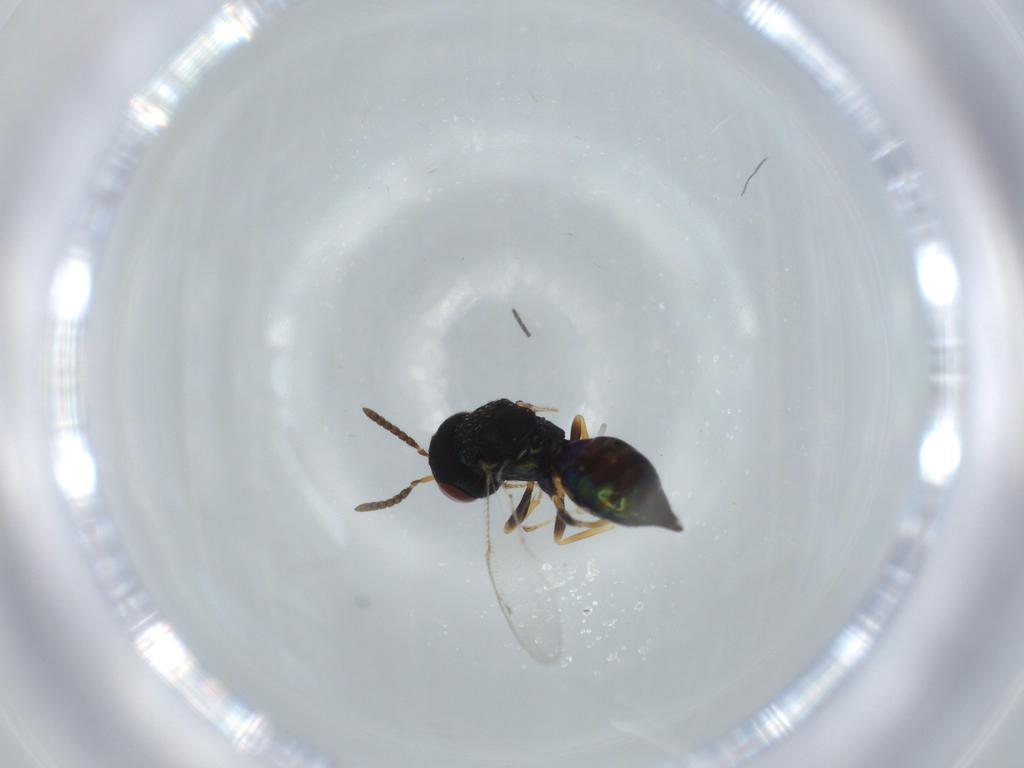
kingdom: Animalia
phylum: Arthropoda
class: Insecta
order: Hymenoptera
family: Pteromalidae
